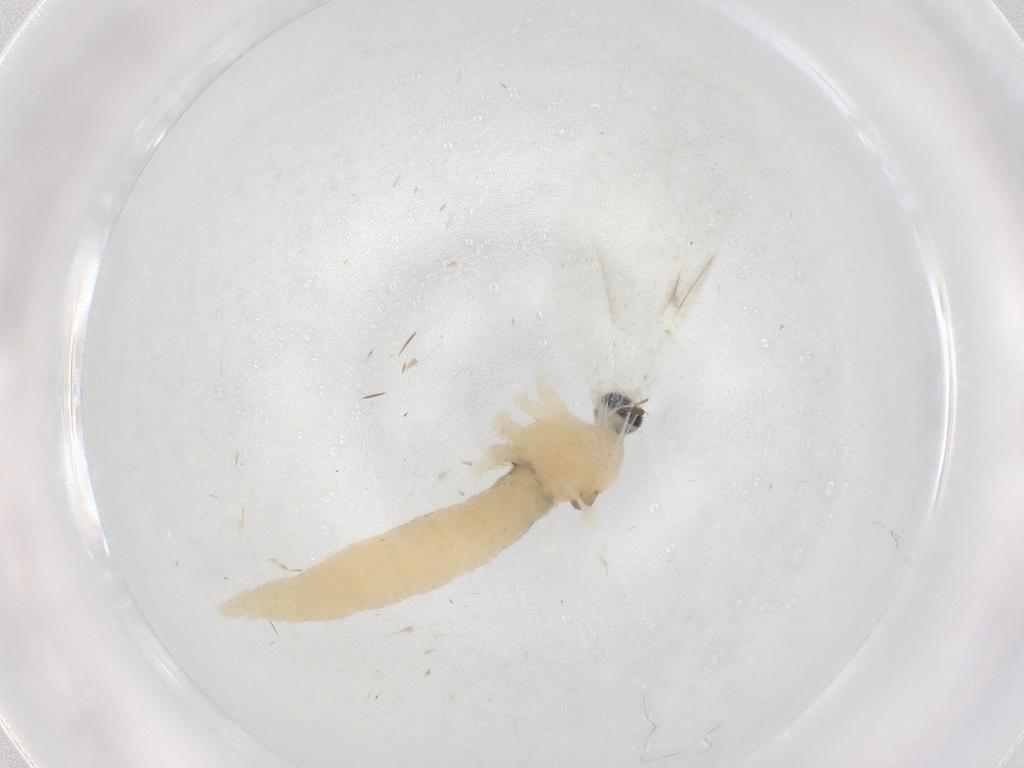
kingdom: Animalia
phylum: Arthropoda
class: Insecta
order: Diptera
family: Cecidomyiidae
